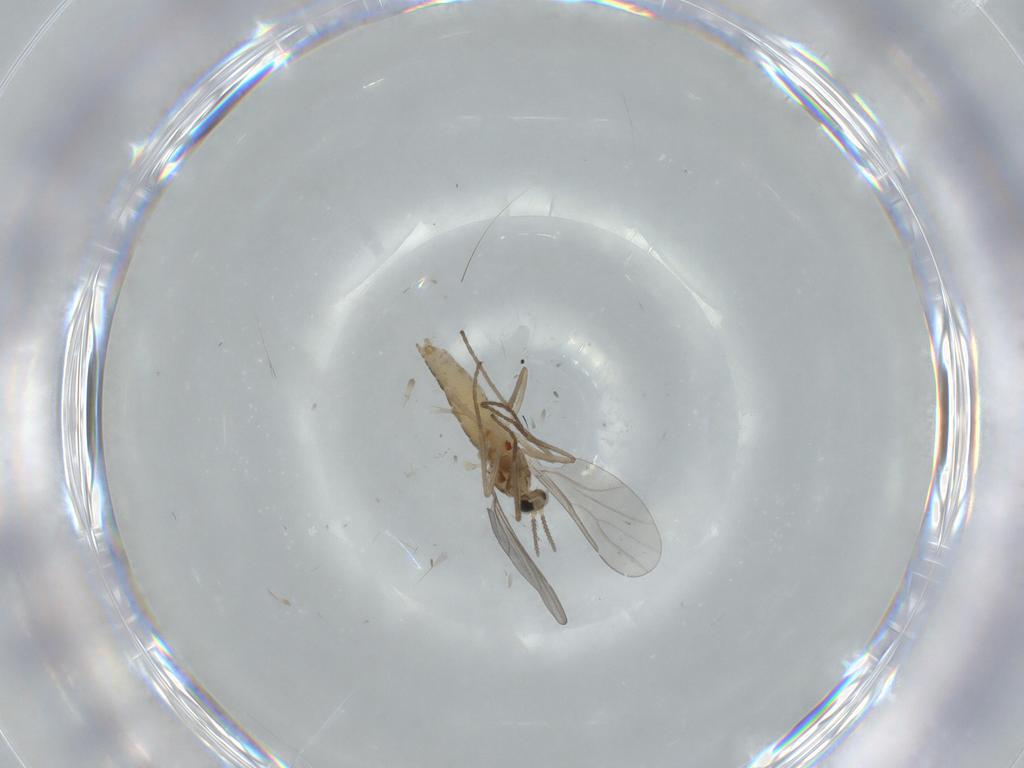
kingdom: Animalia
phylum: Arthropoda
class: Insecta
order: Diptera
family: Cecidomyiidae
